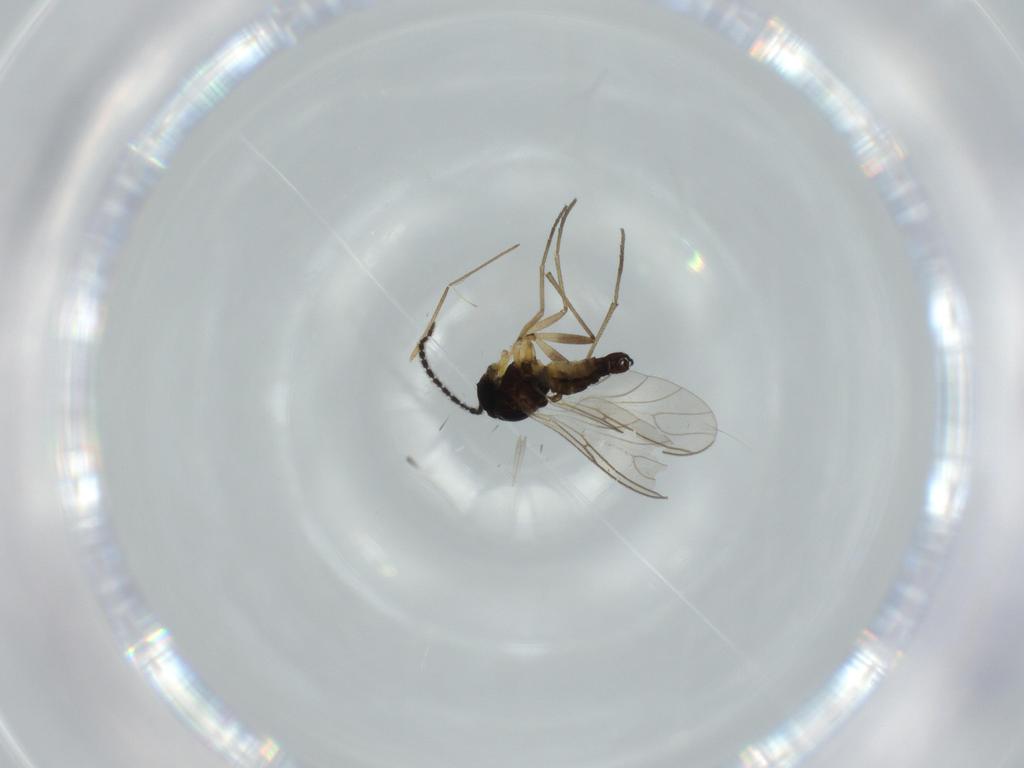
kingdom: Animalia
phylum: Arthropoda
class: Insecta
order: Diptera
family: Sciaridae
